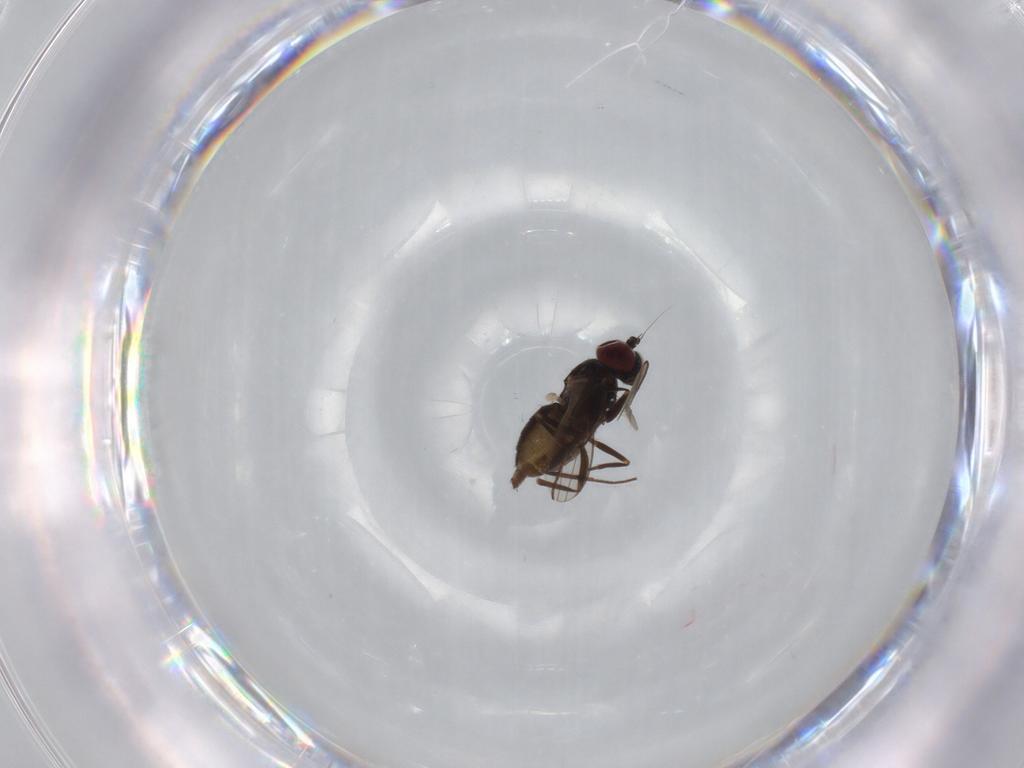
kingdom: Animalia
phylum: Arthropoda
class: Insecta
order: Diptera
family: Dolichopodidae
